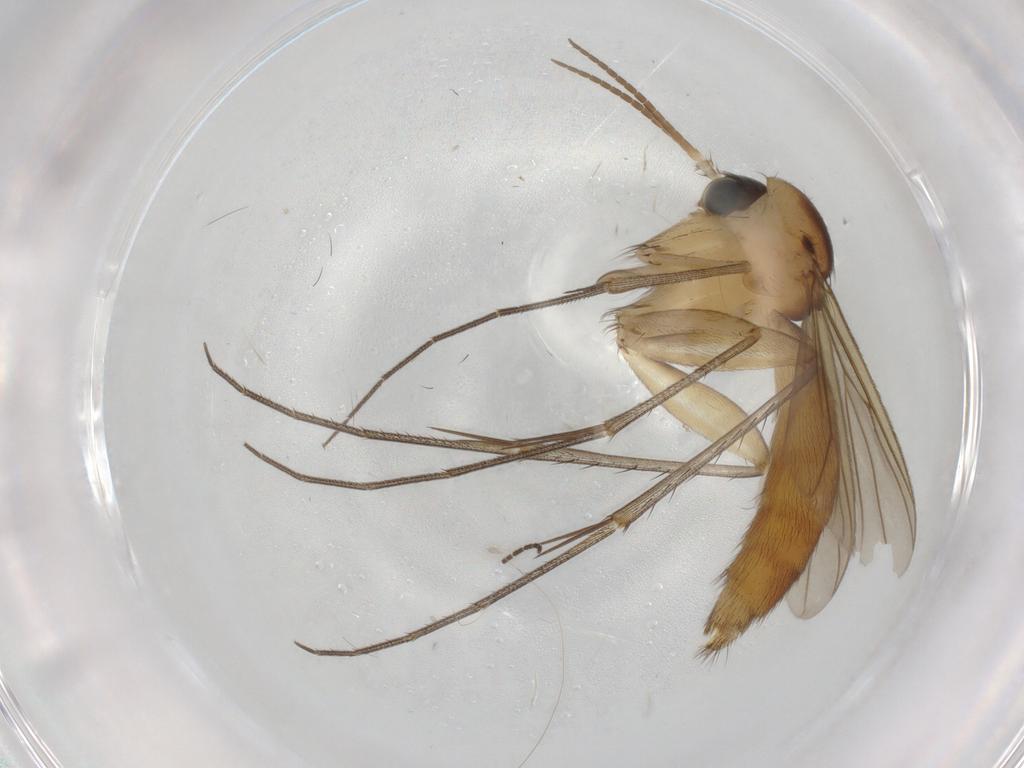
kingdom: Animalia
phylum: Arthropoda
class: Insecta
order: Diptera
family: Mycetophilidae
